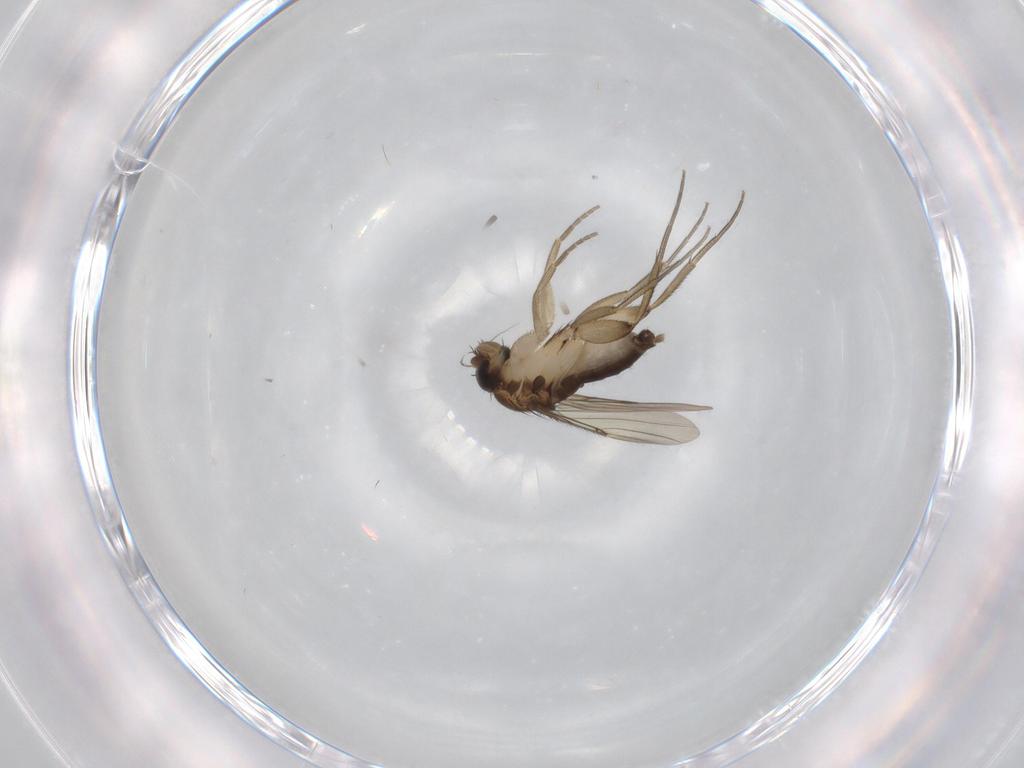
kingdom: Animalia
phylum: Arthropoda
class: Insecta
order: Diptera
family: Phoridae
